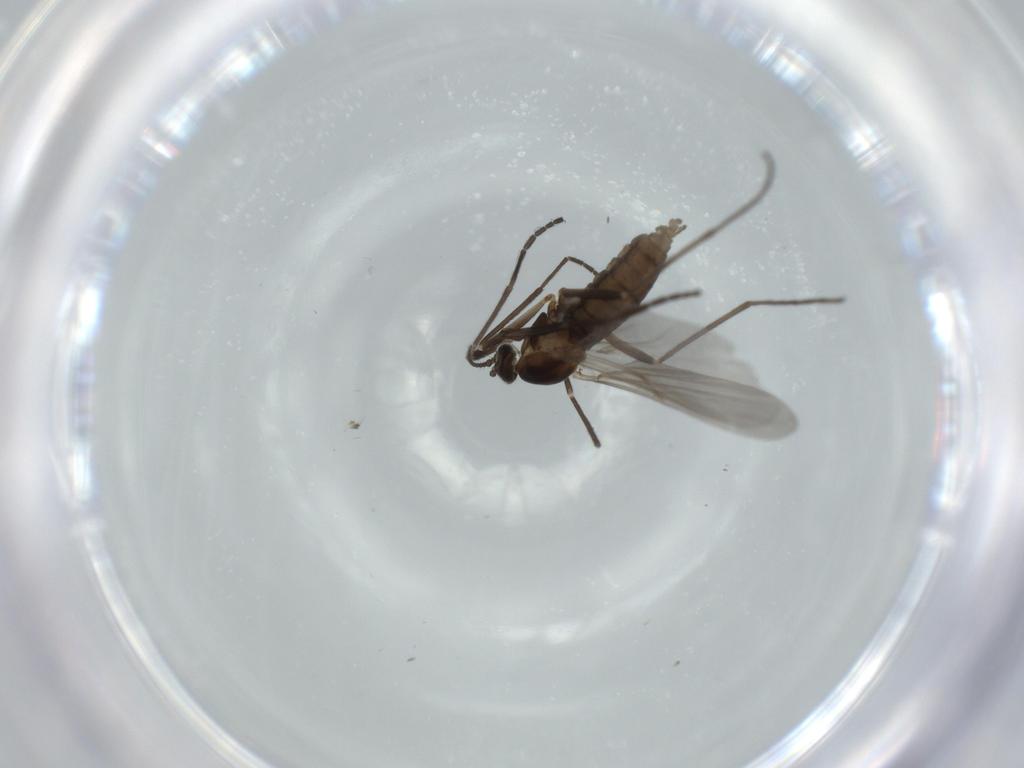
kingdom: Animalia
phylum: Arthropoda
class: Insecta
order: Diptera
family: Cecidomyiidae
